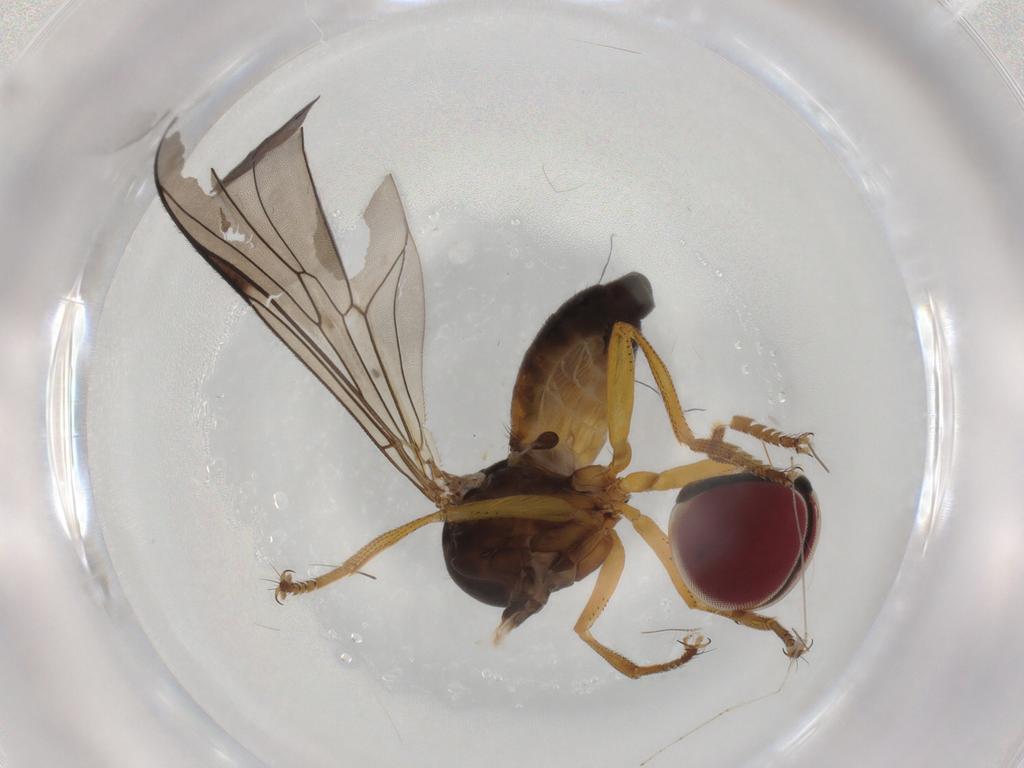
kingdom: Animalia
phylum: Arthropoda
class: Insecta
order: Diptera
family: Pipunculidae
